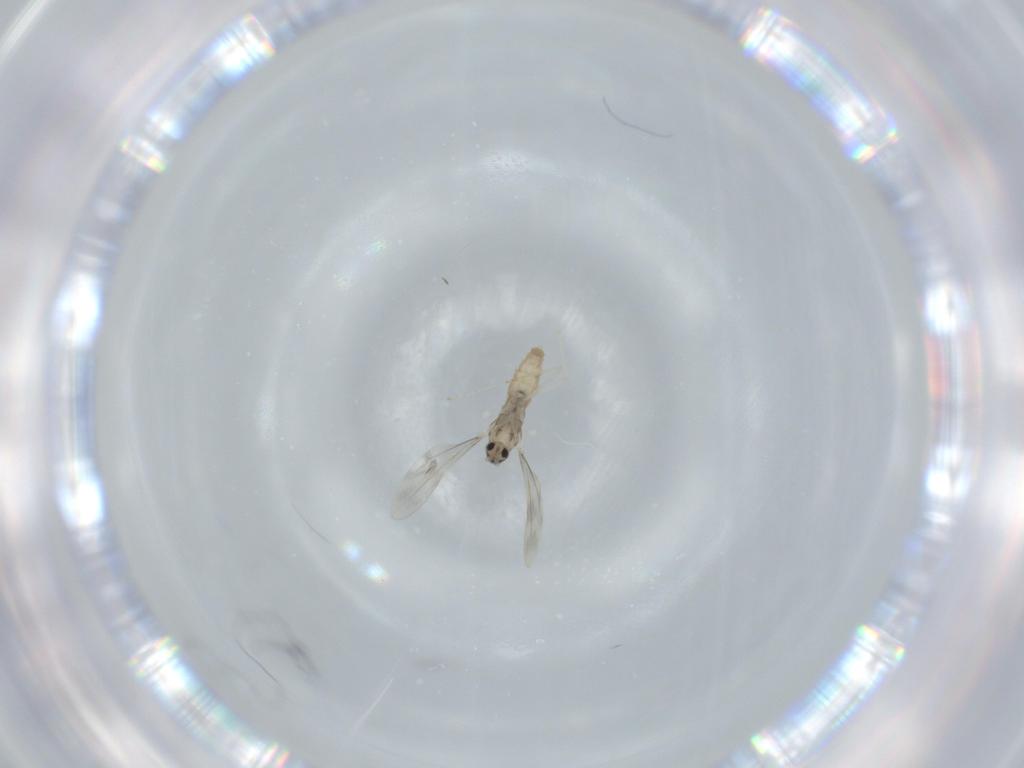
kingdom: Animalia
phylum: Arthropoda
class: Insecta
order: Diptera
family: Cecidomyiidae
